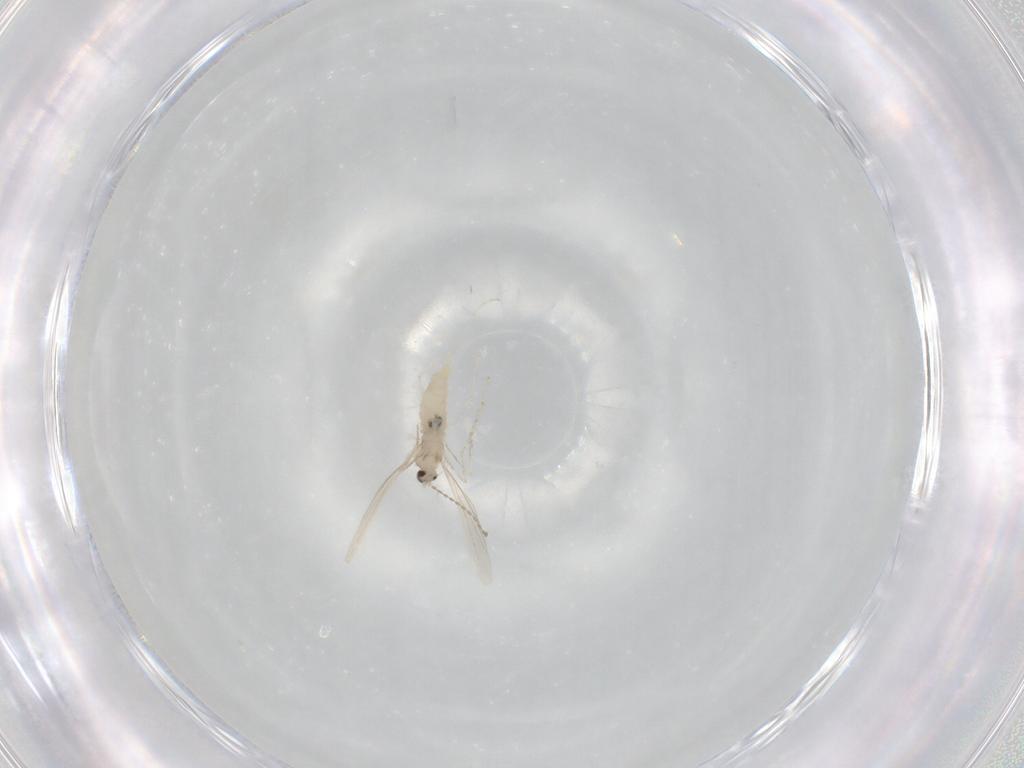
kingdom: Animalia
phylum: Arthropoda
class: Insecta
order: Diptera
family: Cecidomyiidae
